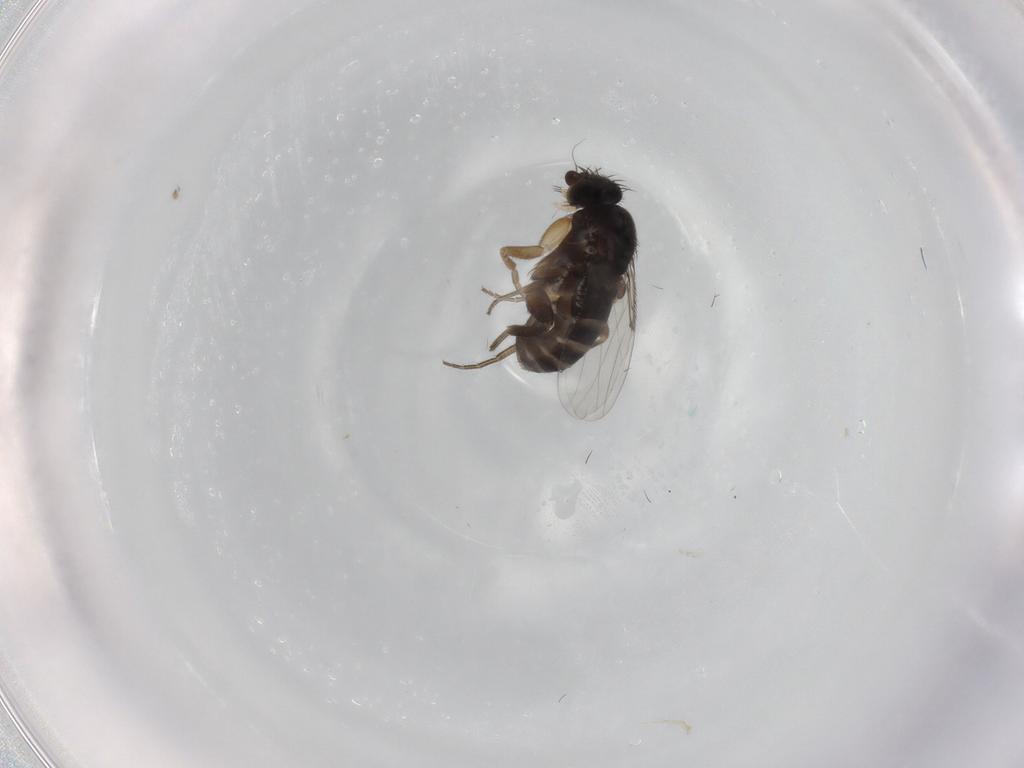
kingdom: Animalia
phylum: Arthropoda
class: Insecta
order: Diptera
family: Phoridae
